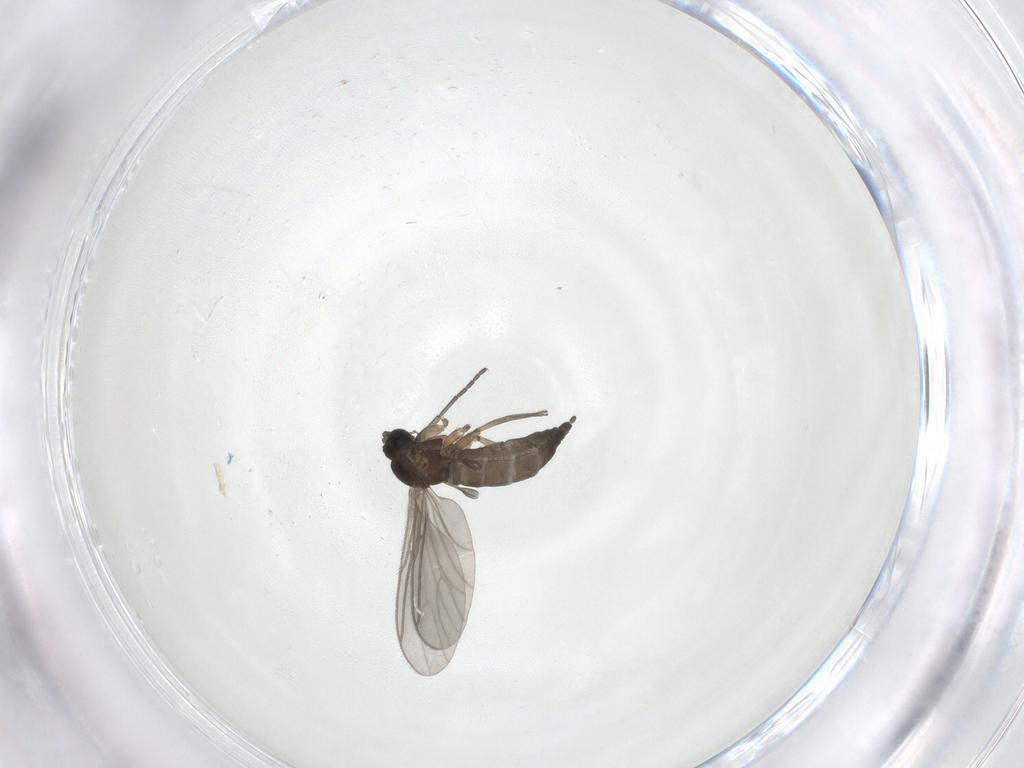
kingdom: Animalia
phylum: Arthropoda
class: Insecta
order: Diptera
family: Sciaridae
